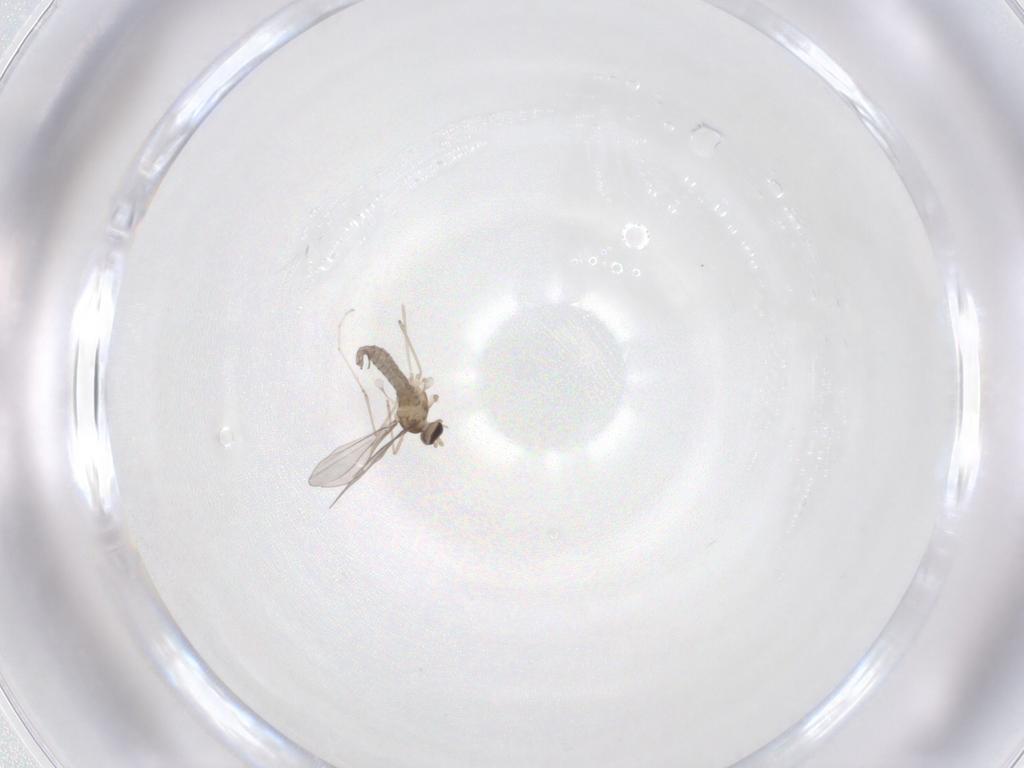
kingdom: Animalia
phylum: Arthropoda
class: Insecta
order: Diptera
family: Cecidomyiidae
